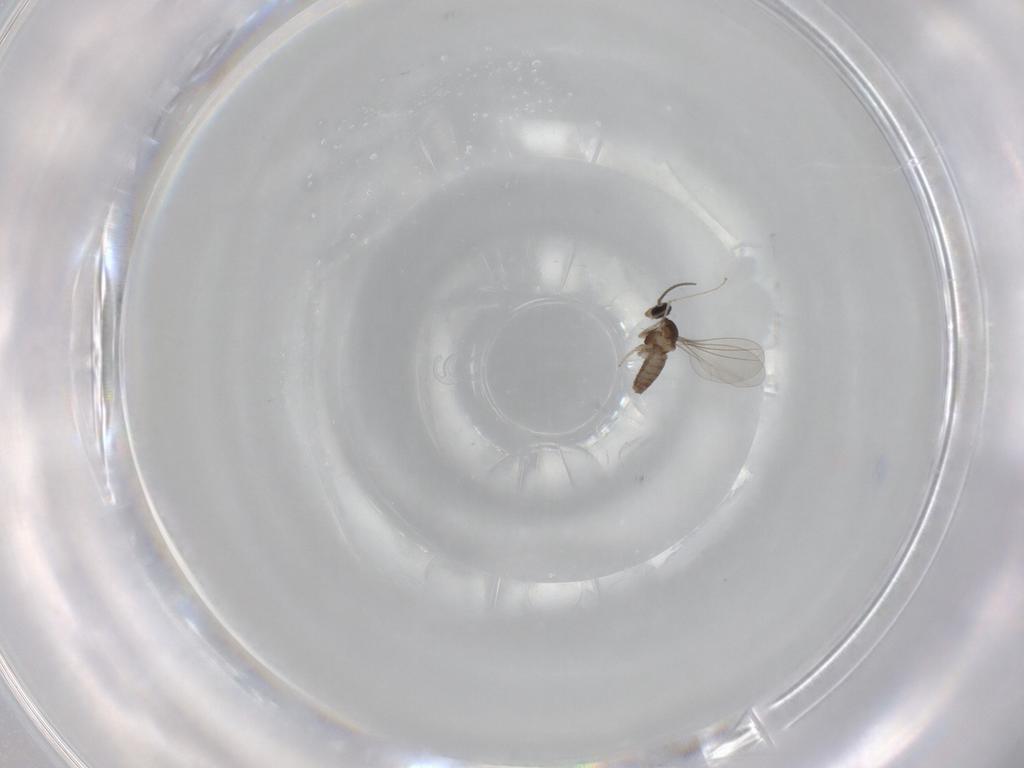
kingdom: Animalia
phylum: Arthropoda
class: Insecta
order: Diptera
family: Cecidomyiidae
